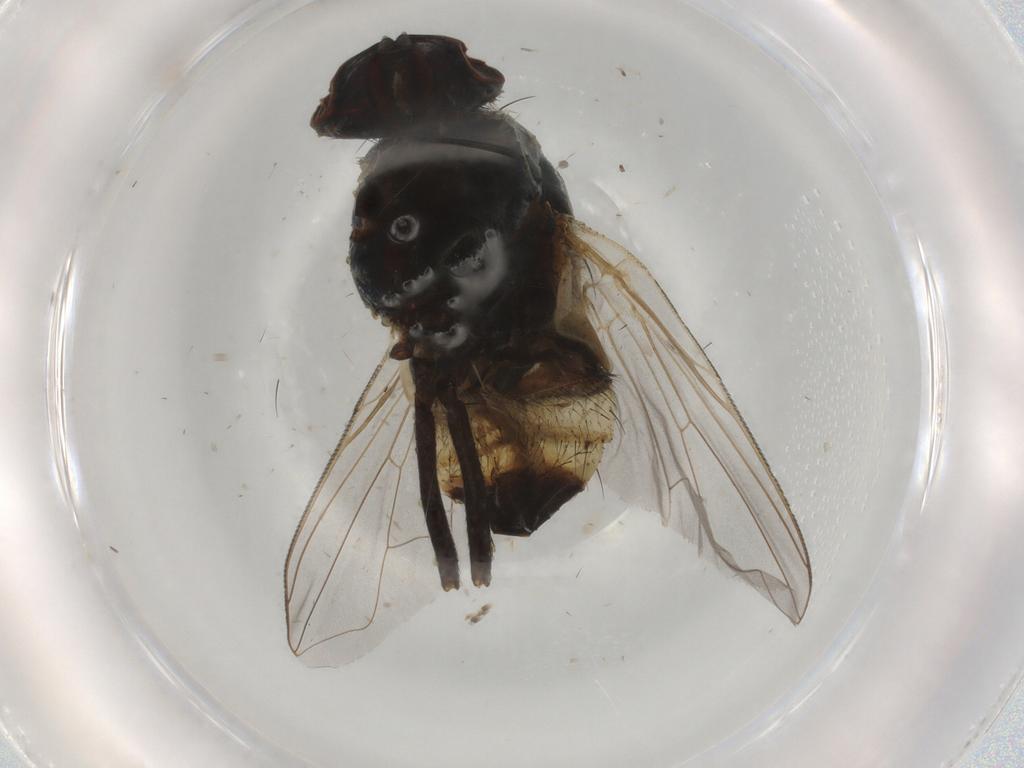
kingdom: Animalia
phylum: Arthropoda
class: Insecta
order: Diptera
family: Muscidae
